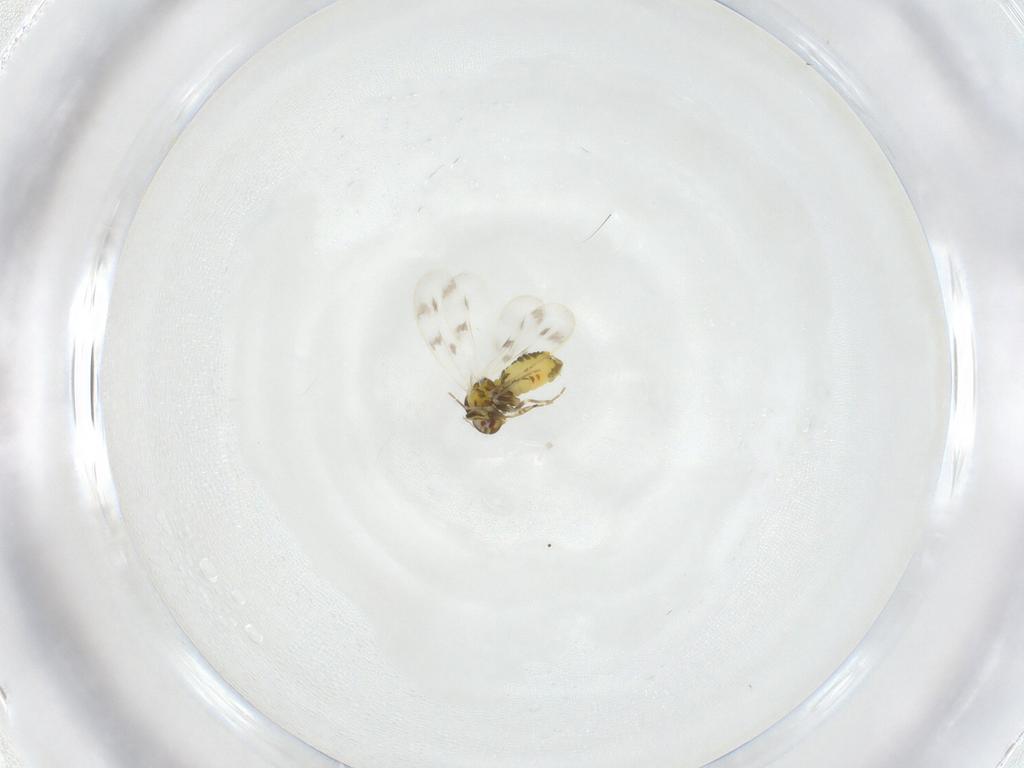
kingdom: Animalia
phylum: Arthropoda
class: Insecta
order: Hemiptera
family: Aleyrodidae
